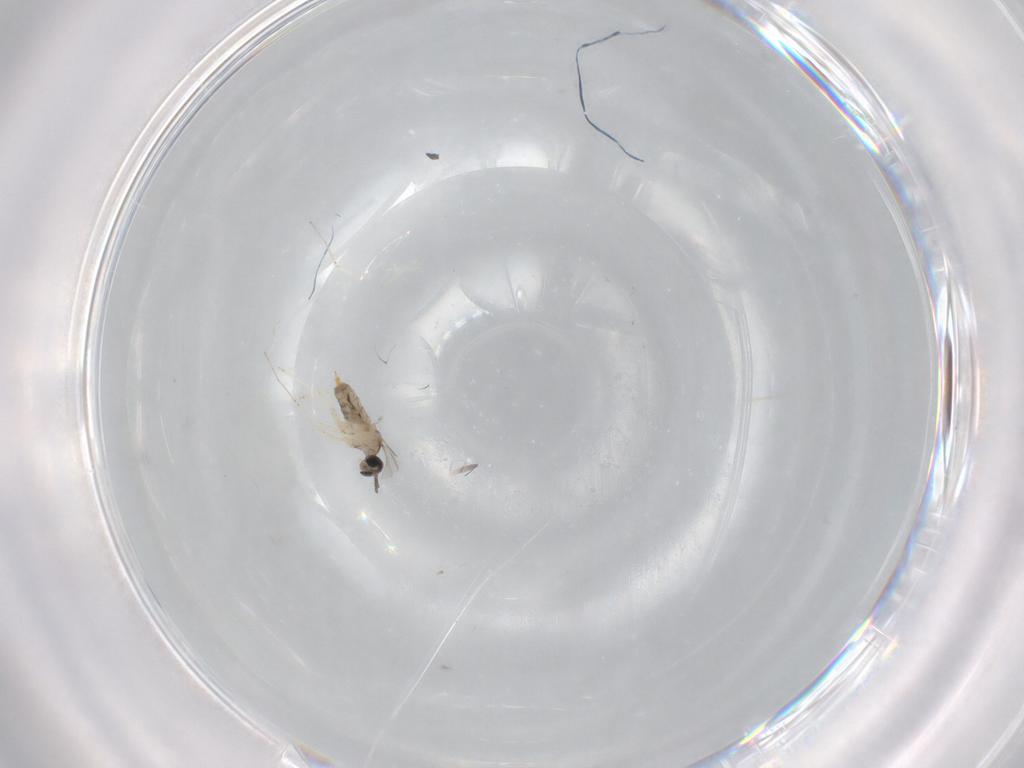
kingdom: Animalia
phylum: Arthropoda
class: Insecta
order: Diptera
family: Cecidomyiidae
